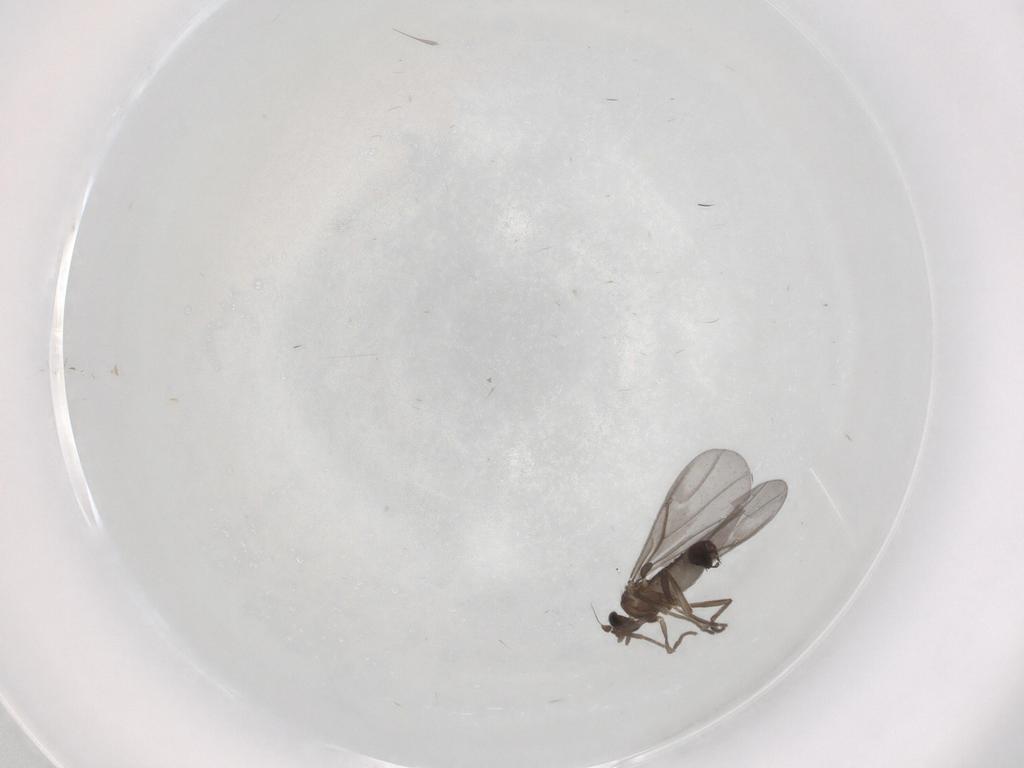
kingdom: Animalia
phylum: Arthropoda
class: Insecta
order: Diptera
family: Phoridae
